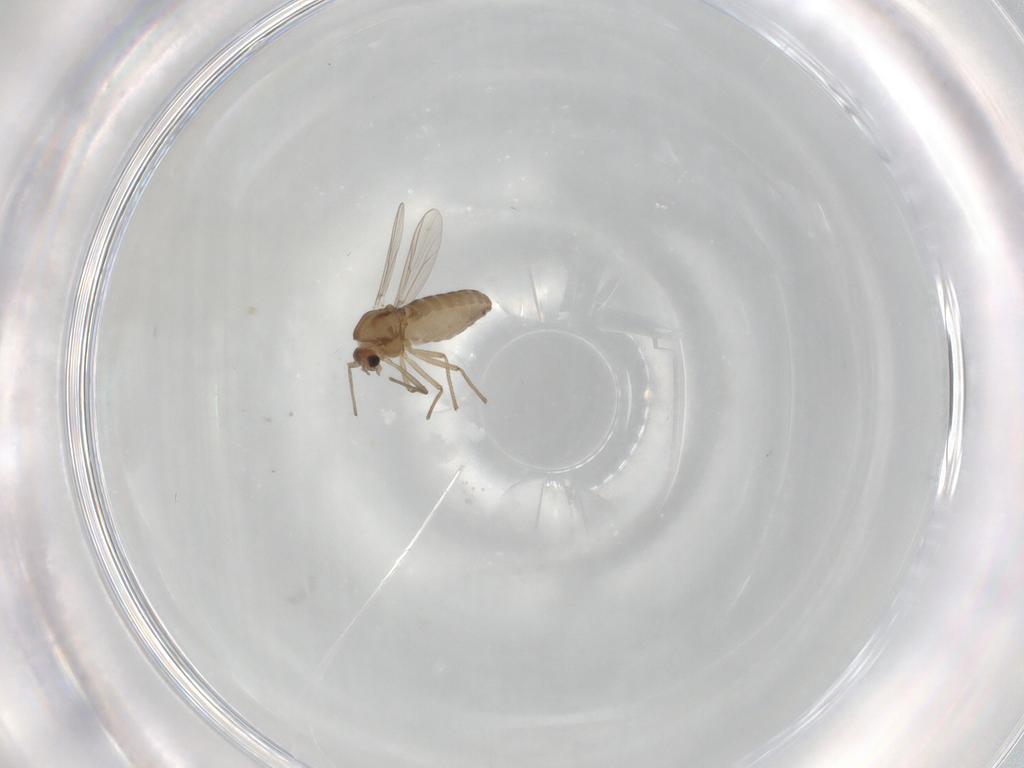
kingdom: Animalia
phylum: Arthropoda
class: Insecta
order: Diptera
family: Cecidomyiidae
